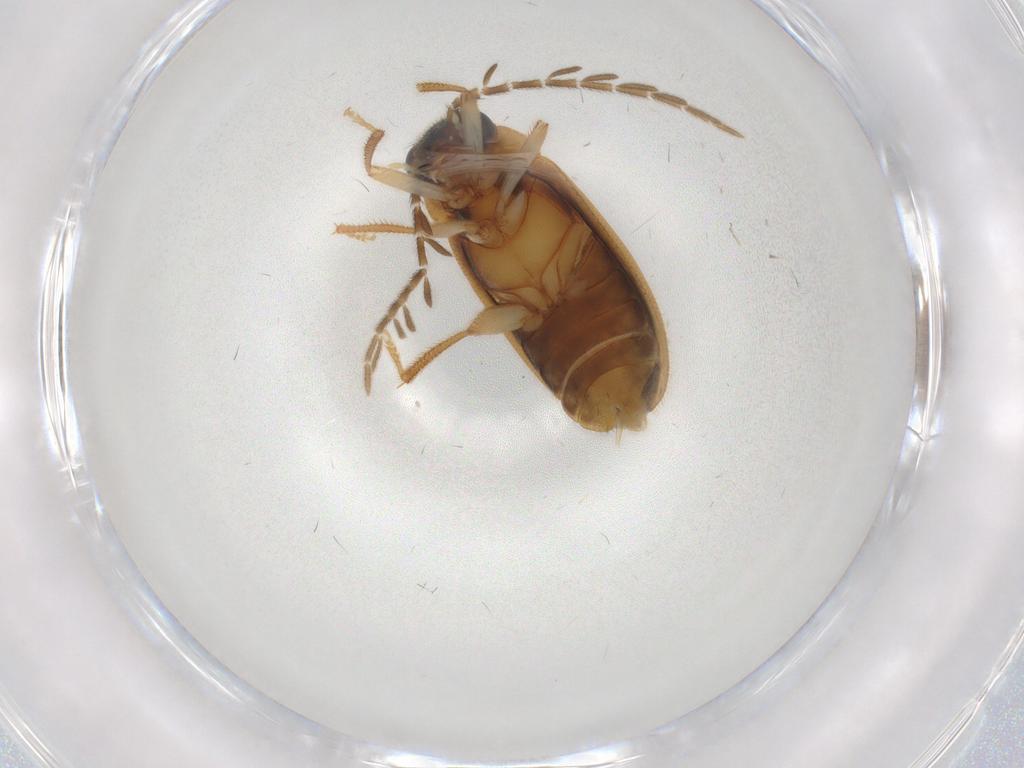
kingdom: Animalia
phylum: Arthropoda
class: Insecta
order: Coleoptera
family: Ptilodactylidae
